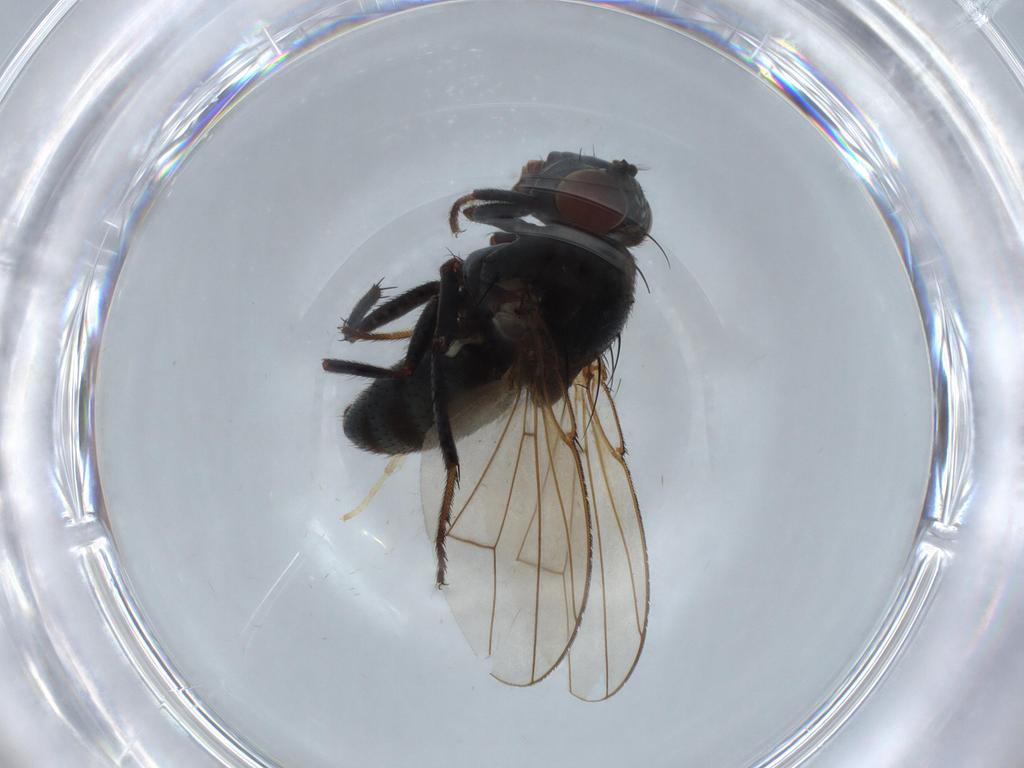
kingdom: Animalia
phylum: Arthropoda
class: Insecta
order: Diptera
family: Ephydridae
